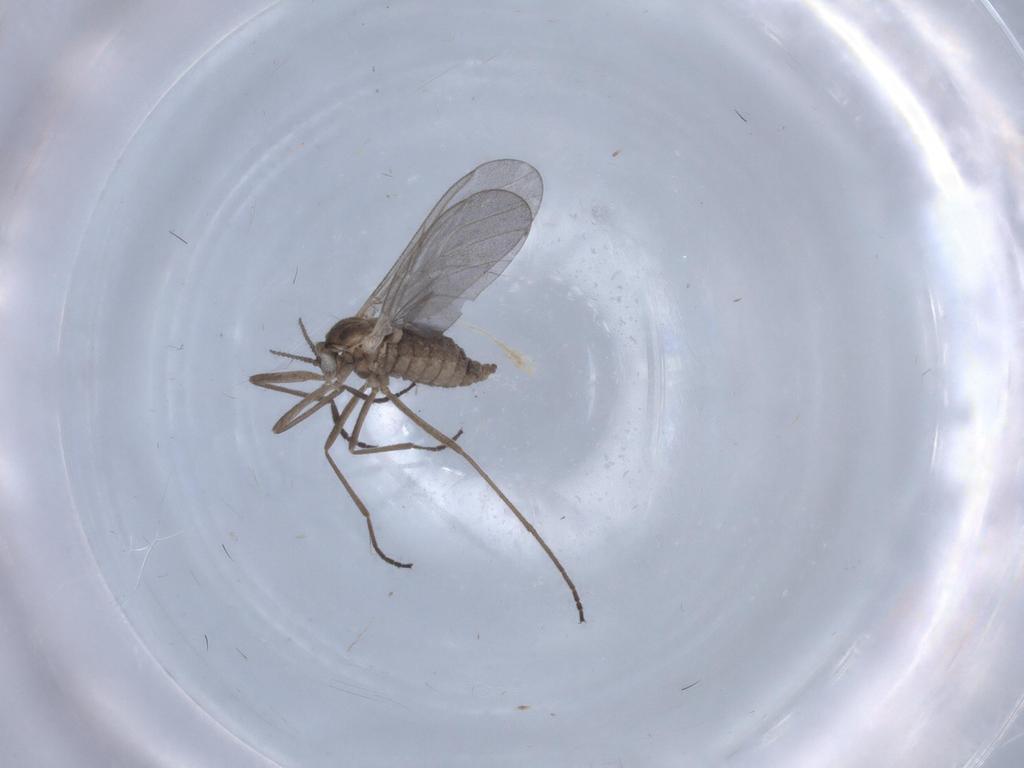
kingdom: Animalia
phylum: Arthropoda
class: Insecta
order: Diptera
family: Cecidomyiidae
